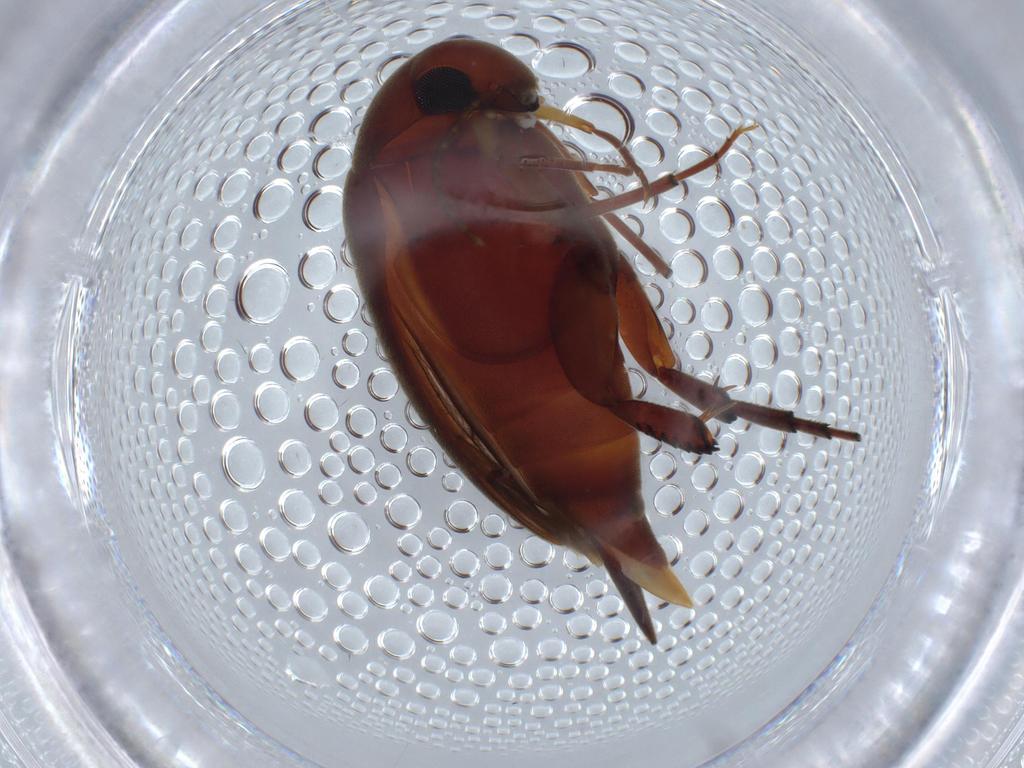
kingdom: Animalia
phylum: Arthropoda
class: Insecta
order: Coleoptera
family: Mordellidae
